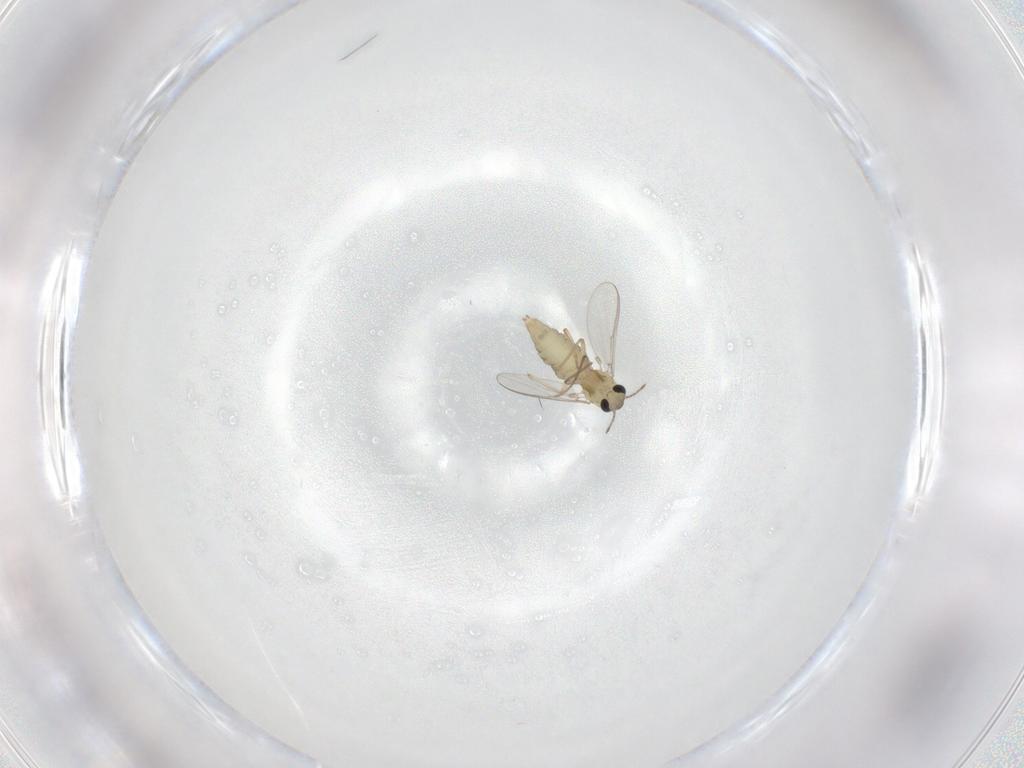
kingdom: Animalia
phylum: Arthropoda
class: Insecta
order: Diptera
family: Chironomidae
